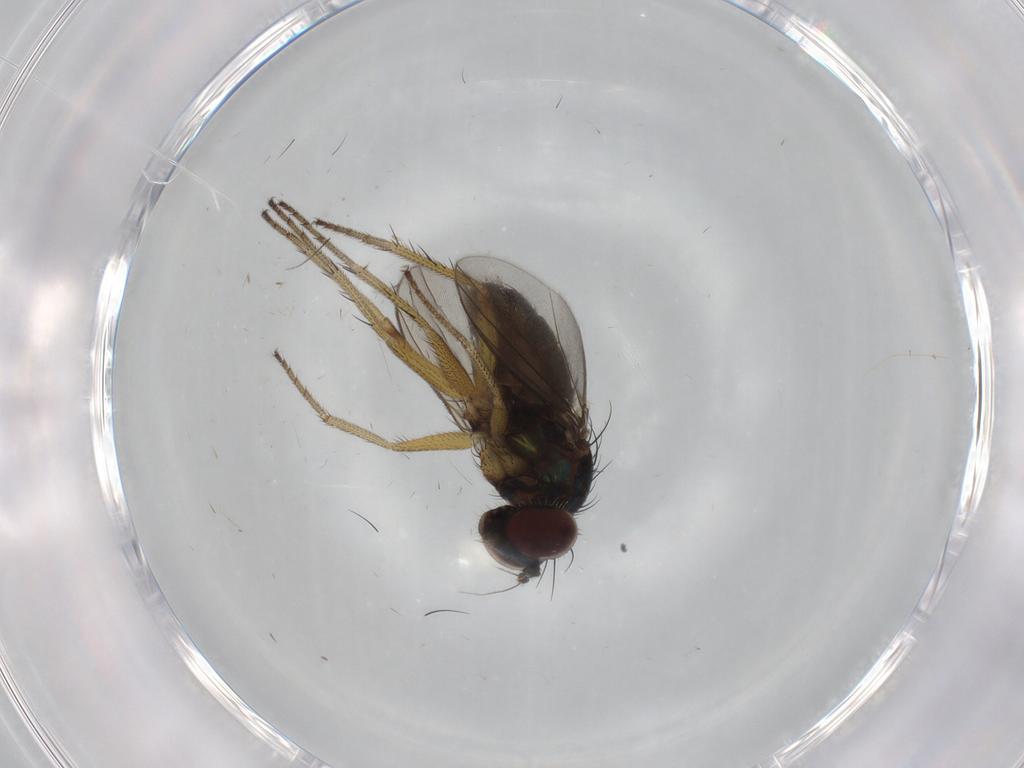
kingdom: Animalia
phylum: Arthropoda
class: Insecta
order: Diptera
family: Dolichopodidae
